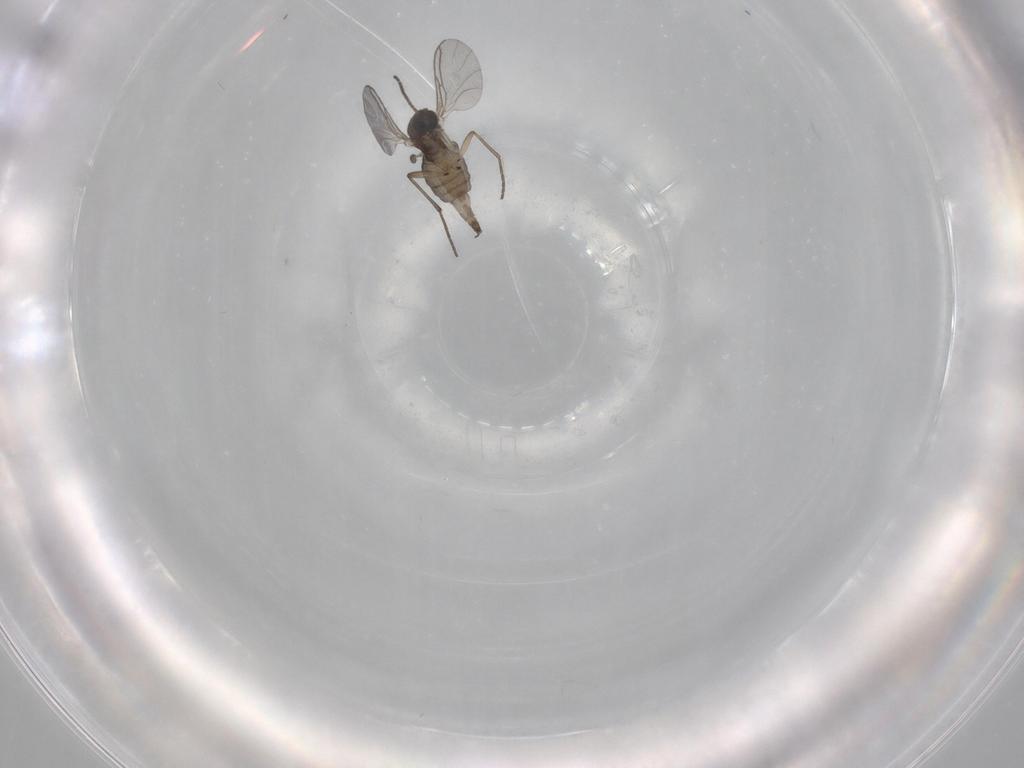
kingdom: Animalia
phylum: Arthropoda
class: Insecta
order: Diptera
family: Sciaridae
